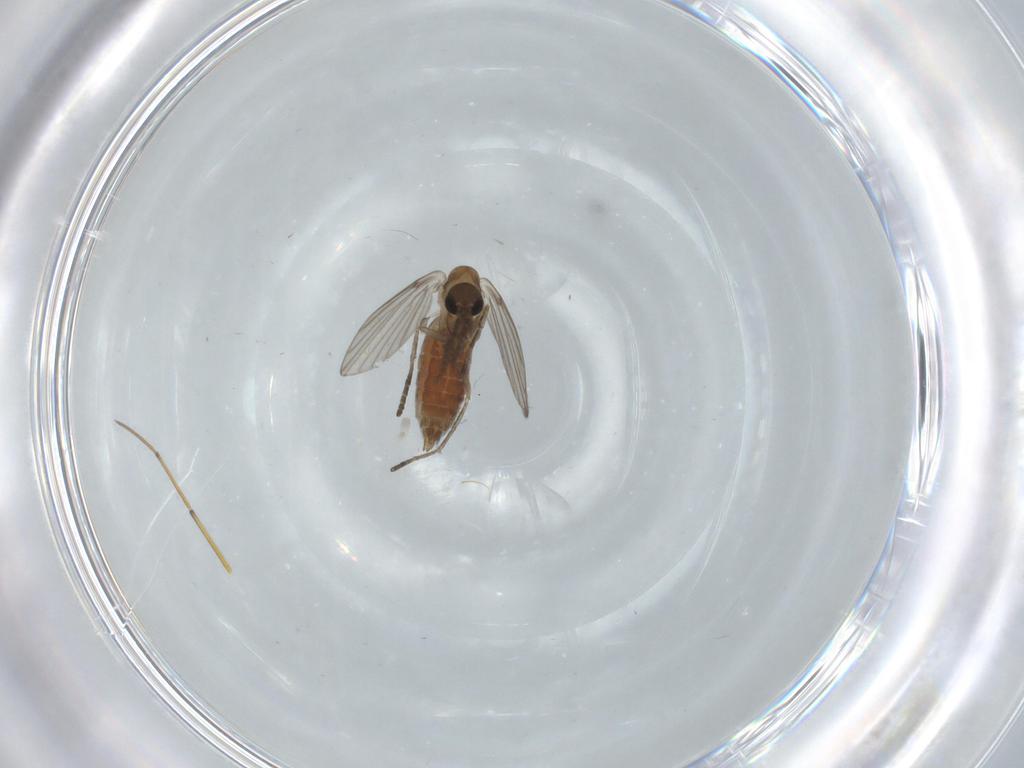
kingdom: Animalia
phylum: Arthropoda
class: Insecta
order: Diptera
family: Psychodidae
